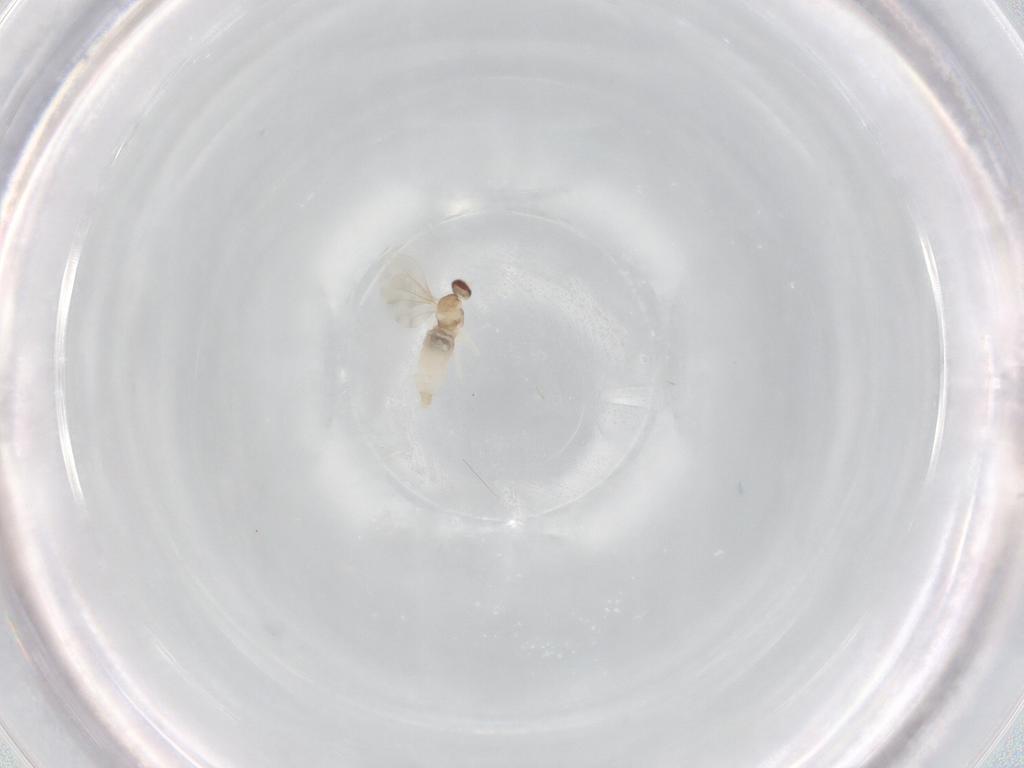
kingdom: Animalia
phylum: Arthropoda
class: Insecta
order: Diptera
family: Cecidomyiidae
